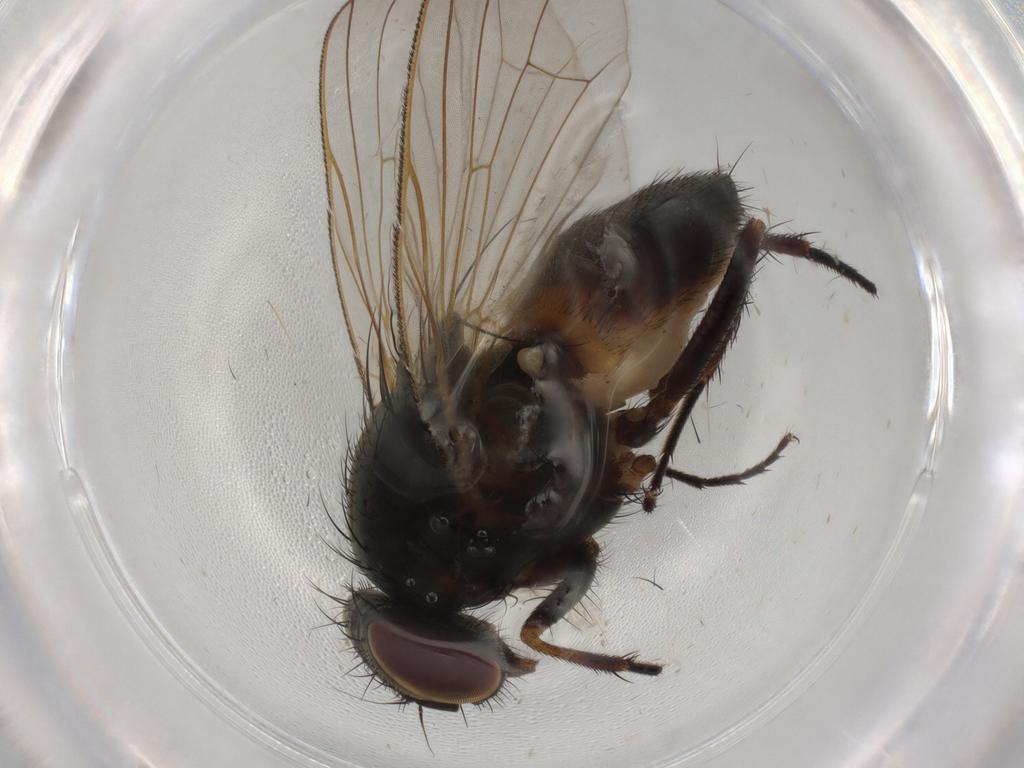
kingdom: Animalia
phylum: Arthropoda
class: Insecta
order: Diptera
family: Fannia
